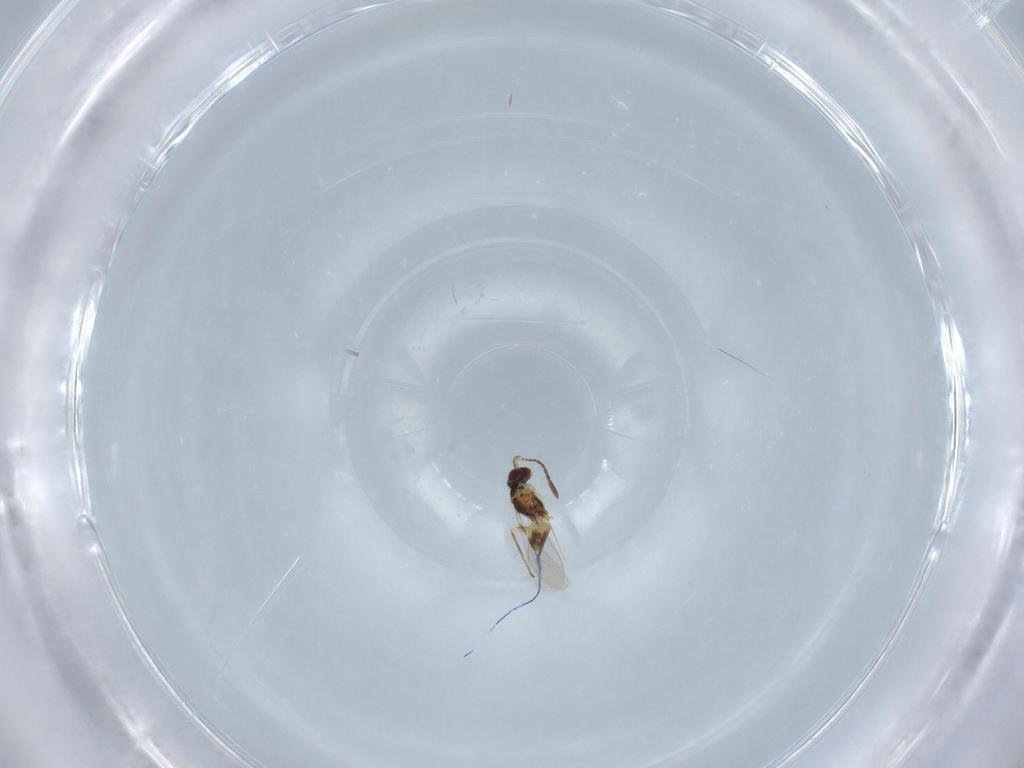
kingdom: Animalia
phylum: Arthropoda
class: Insecta
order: Hymenoptera
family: Mymaridae
